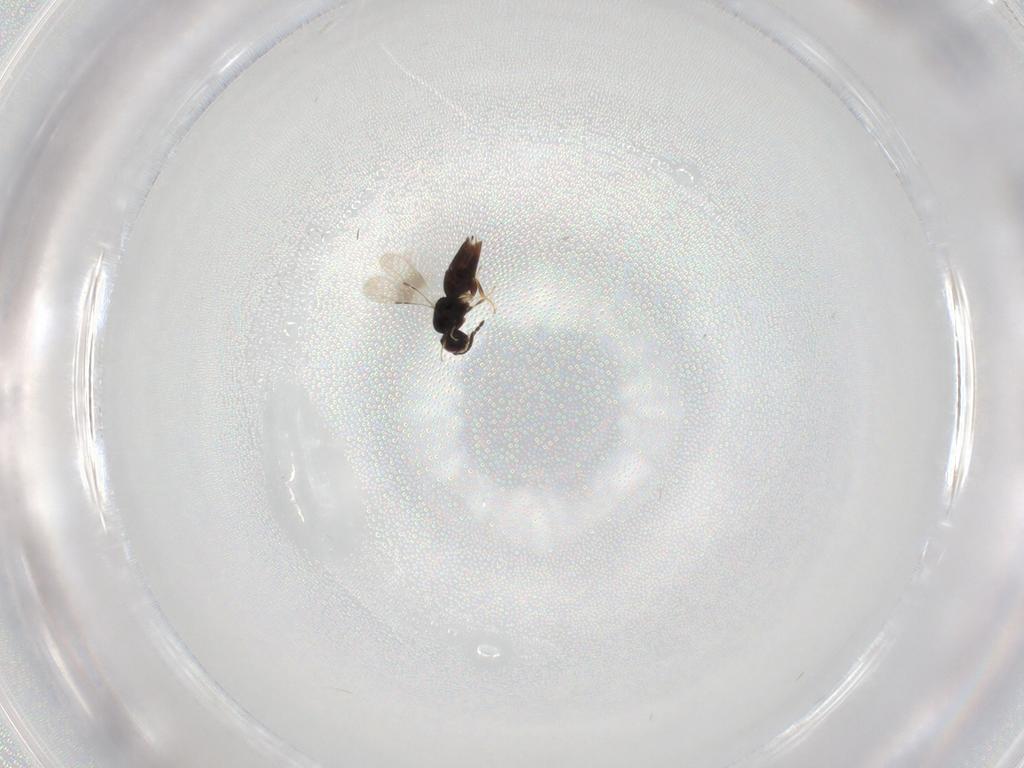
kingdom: Animalia
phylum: Arthropoda
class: Insecta
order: Hymenoptera
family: Ceraphronidae
